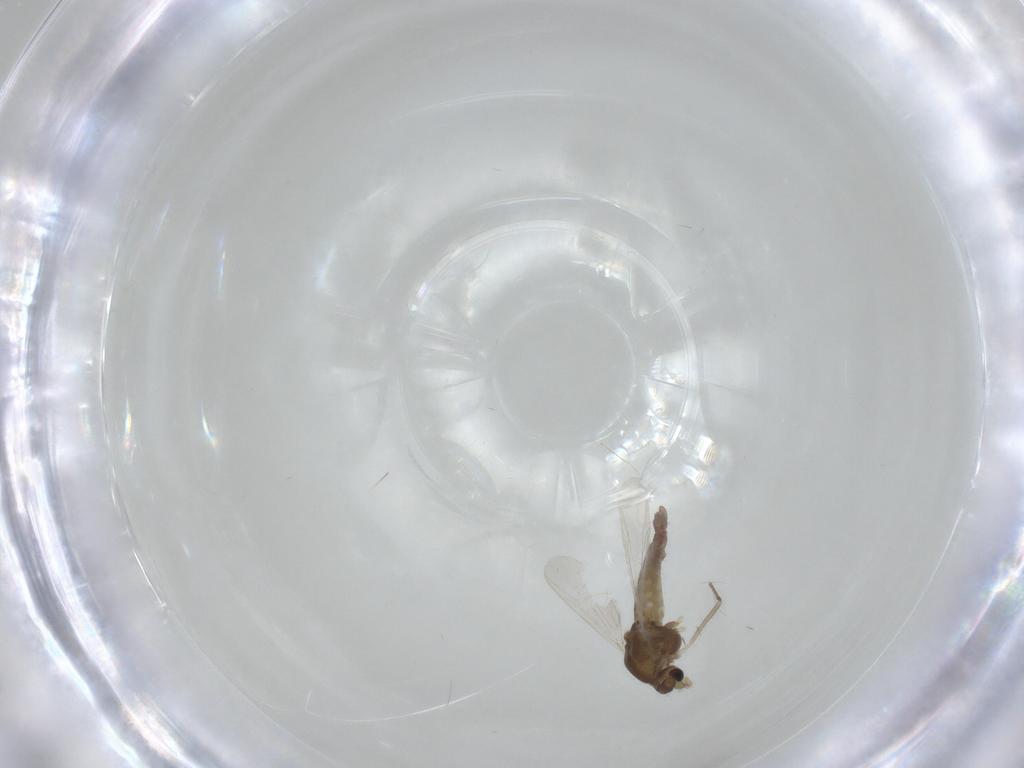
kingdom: Animalia
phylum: Arthropoda
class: Insecta
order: Diptera
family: Chironomidae
